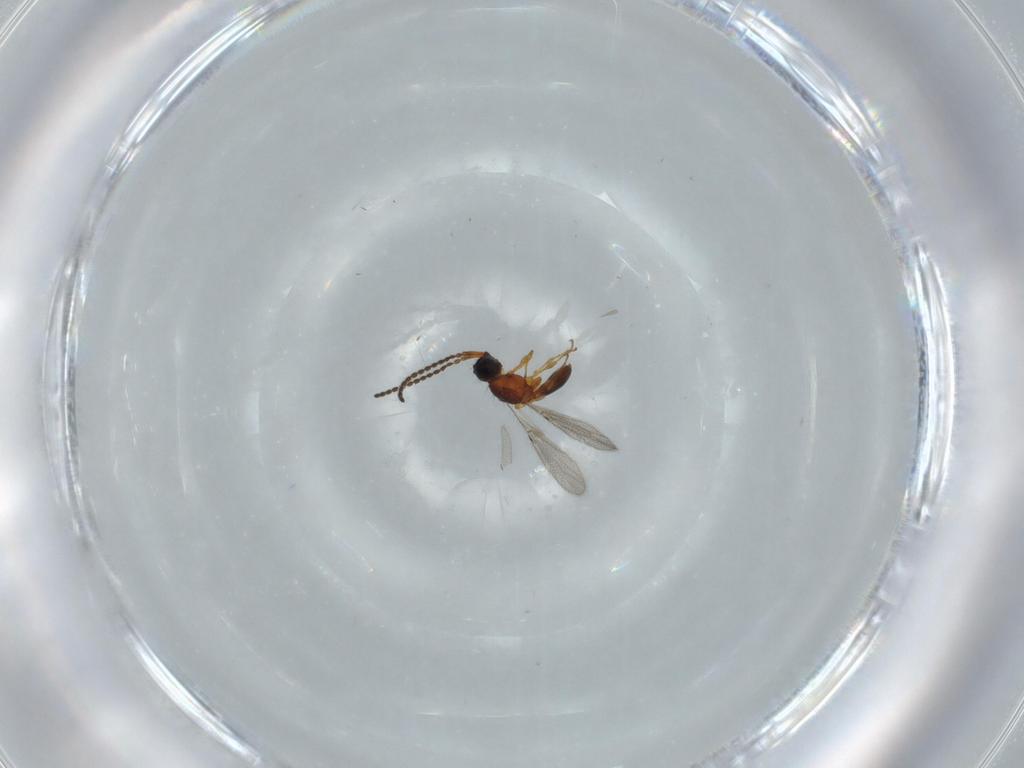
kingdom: Animalia
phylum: Arthropoda
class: Insecta
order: Hymenoptera
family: Diapriidae
